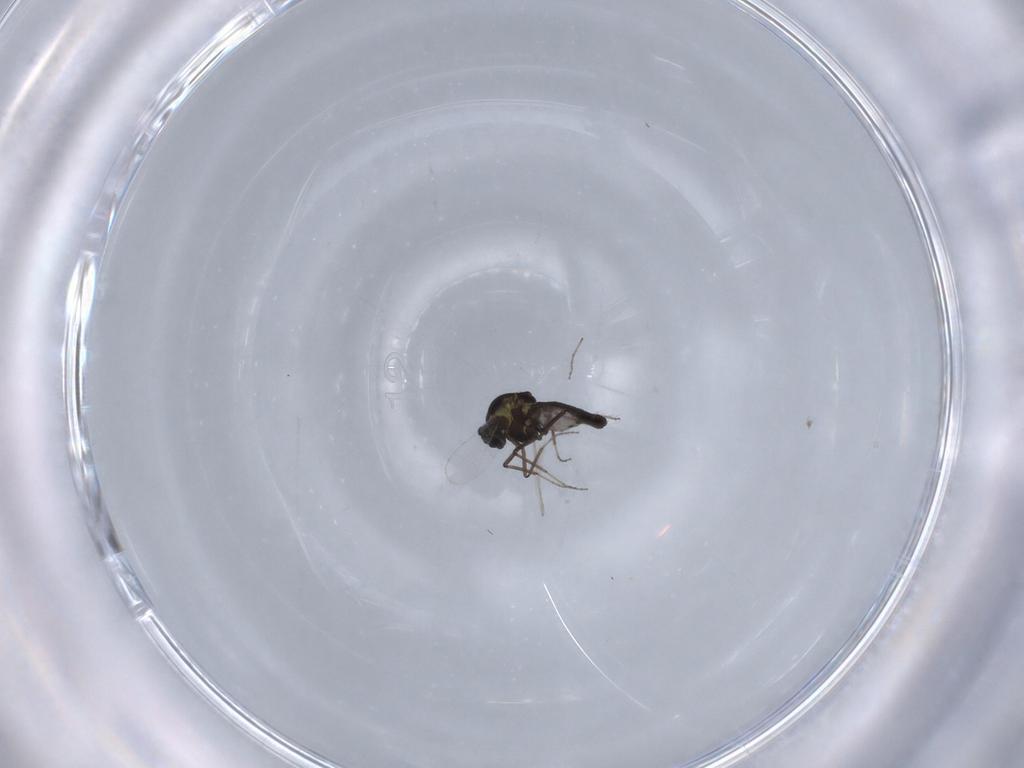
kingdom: Animalia
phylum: Arthropoda
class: Insecta
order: Diptera
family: Ceratopogonidae
